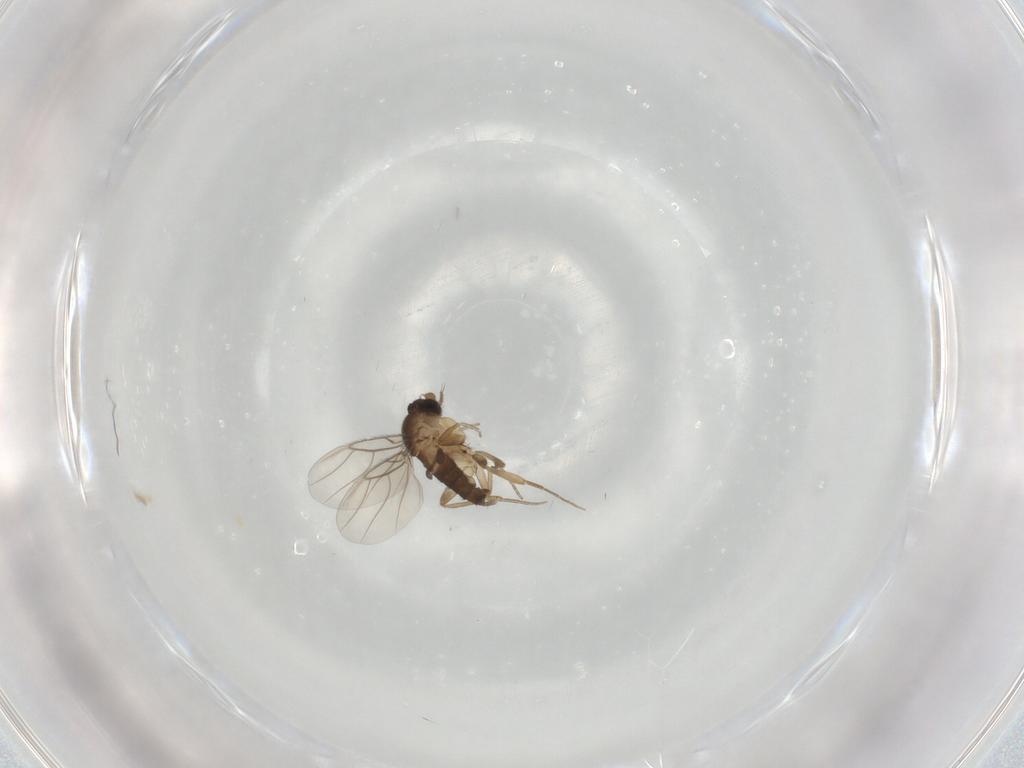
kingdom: Animalia
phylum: Arthropoda
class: Insecta
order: Diptera
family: Phoridae
